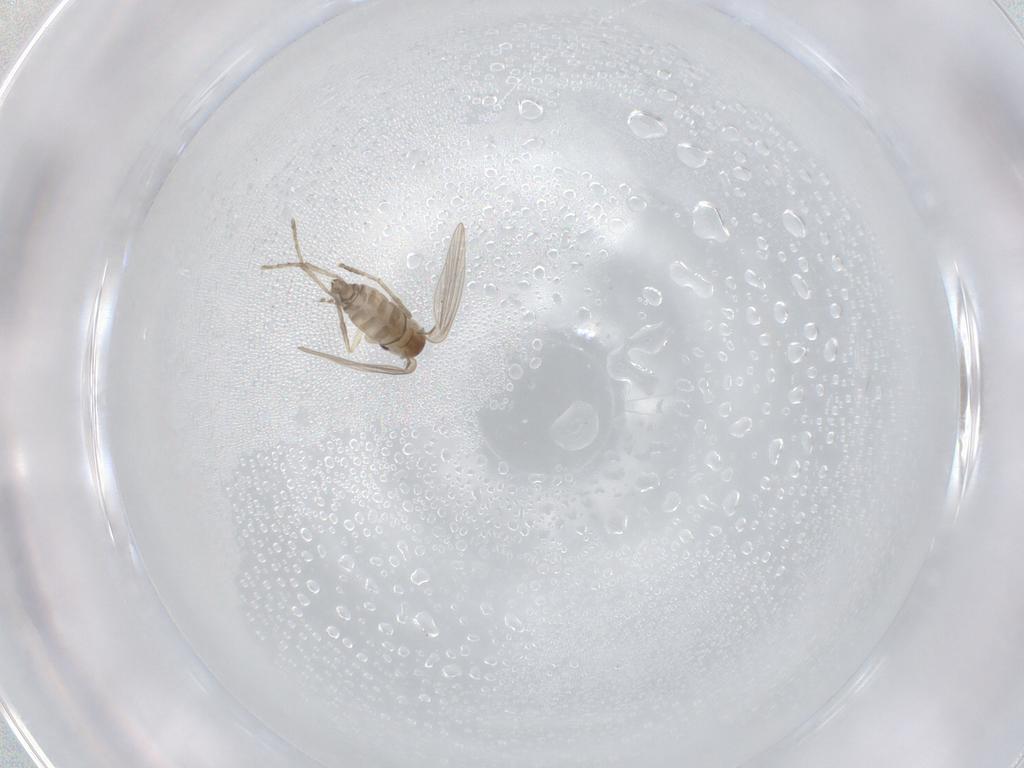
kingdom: Animalia
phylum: Arthropoda
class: Insecta
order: Diptera
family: Psychodidae
